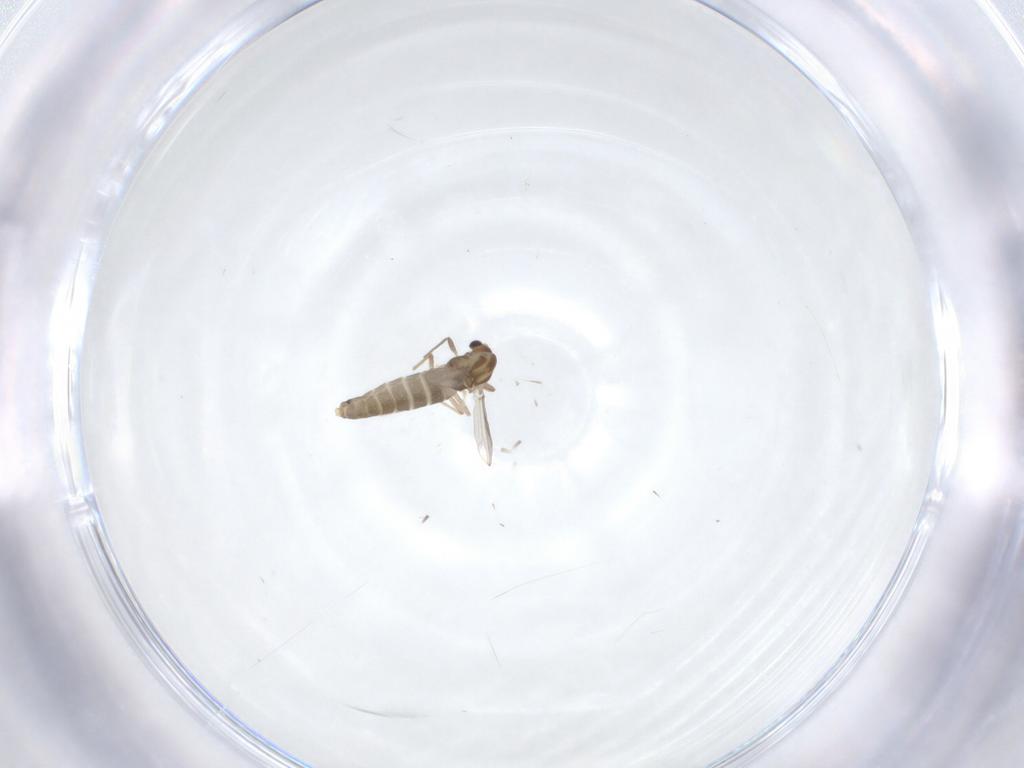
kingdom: Animalia
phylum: Arthropoda
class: Insecta
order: Diptera
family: Chironomidae
